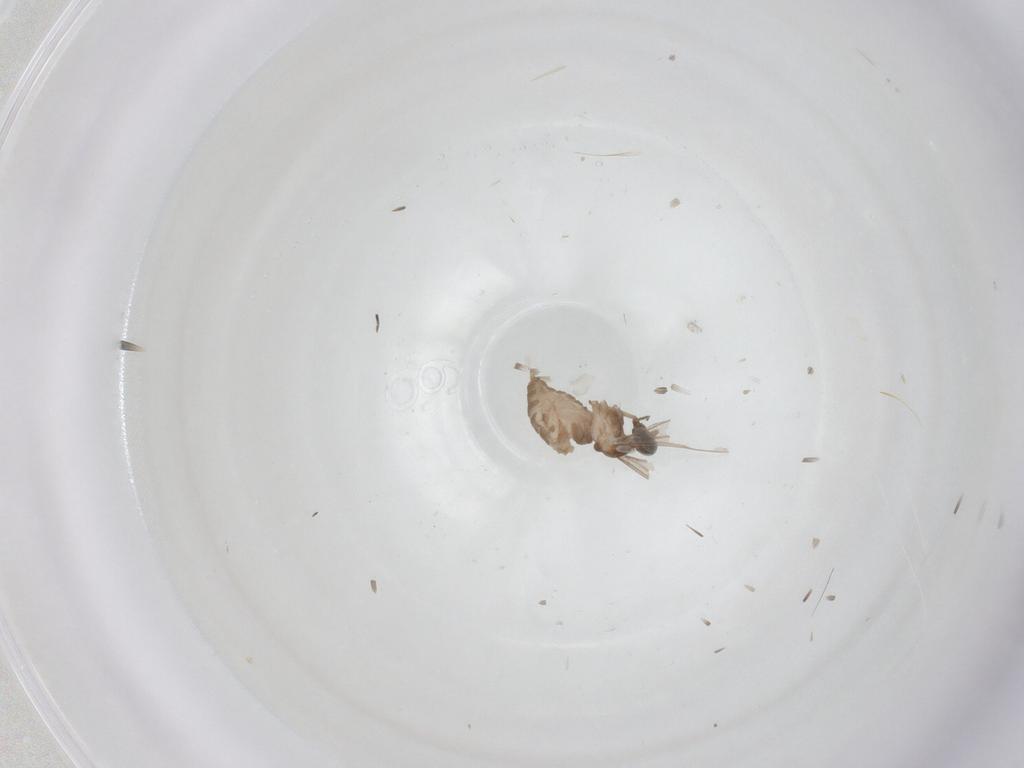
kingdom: Animalia
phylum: Arthropoda
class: Insecta
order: Diptera
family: Cecidomyiidae
